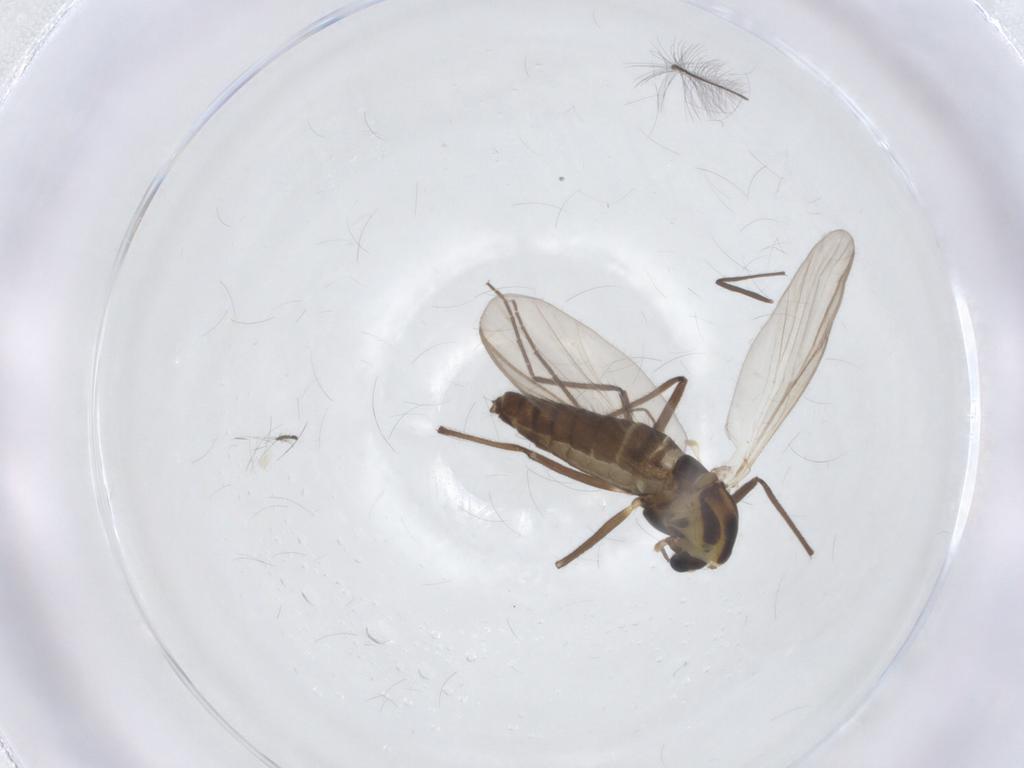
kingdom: Animalia
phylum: Arthropoda
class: Insecta
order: Diptera
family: Chironomidae
